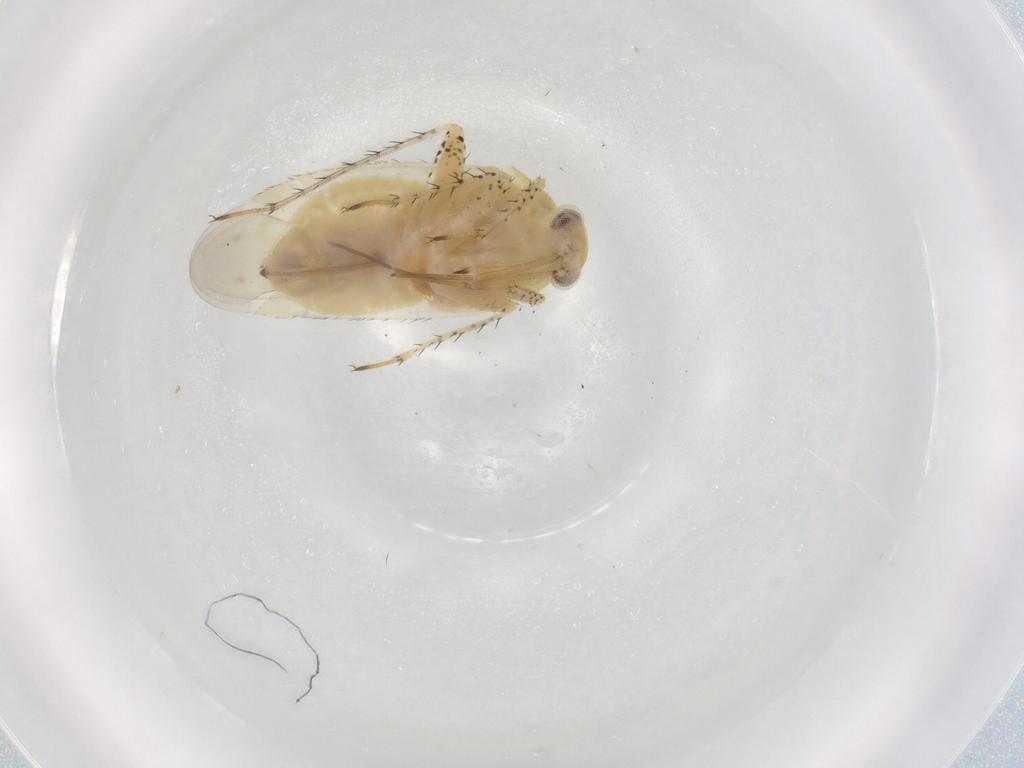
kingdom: Animalia
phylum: Arthropoda
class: Insecta
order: Hemiptera
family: Miridae
